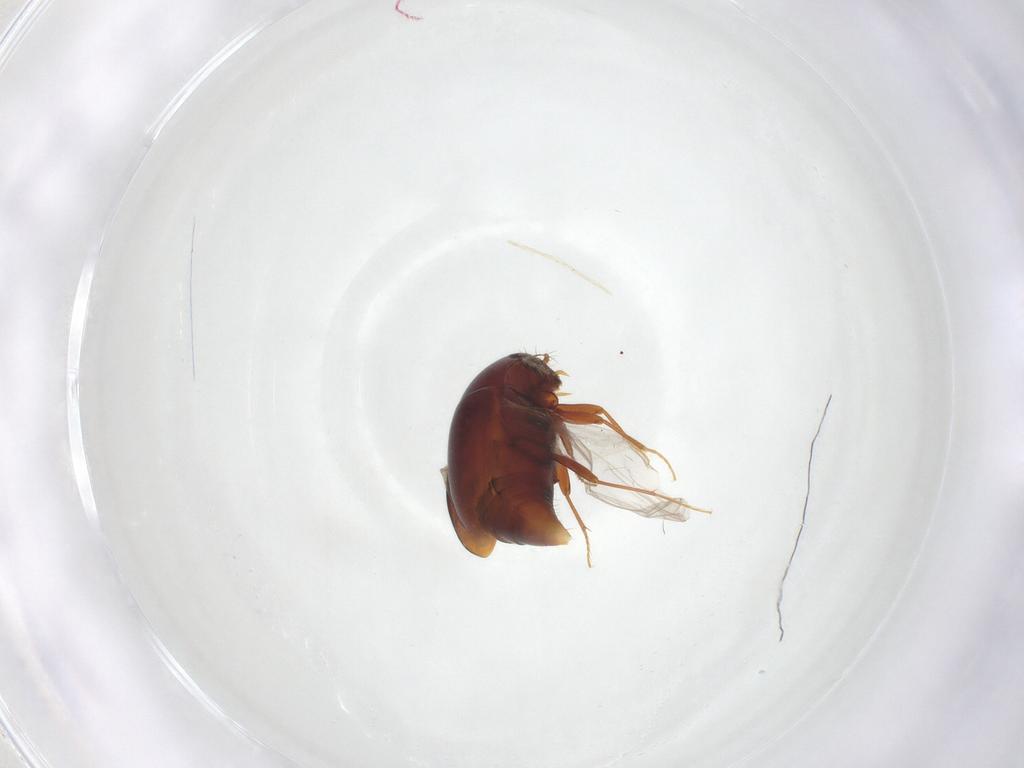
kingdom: Animalia
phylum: Arthropoda
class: Insecta
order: Coleoptera
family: Staphylinidae
